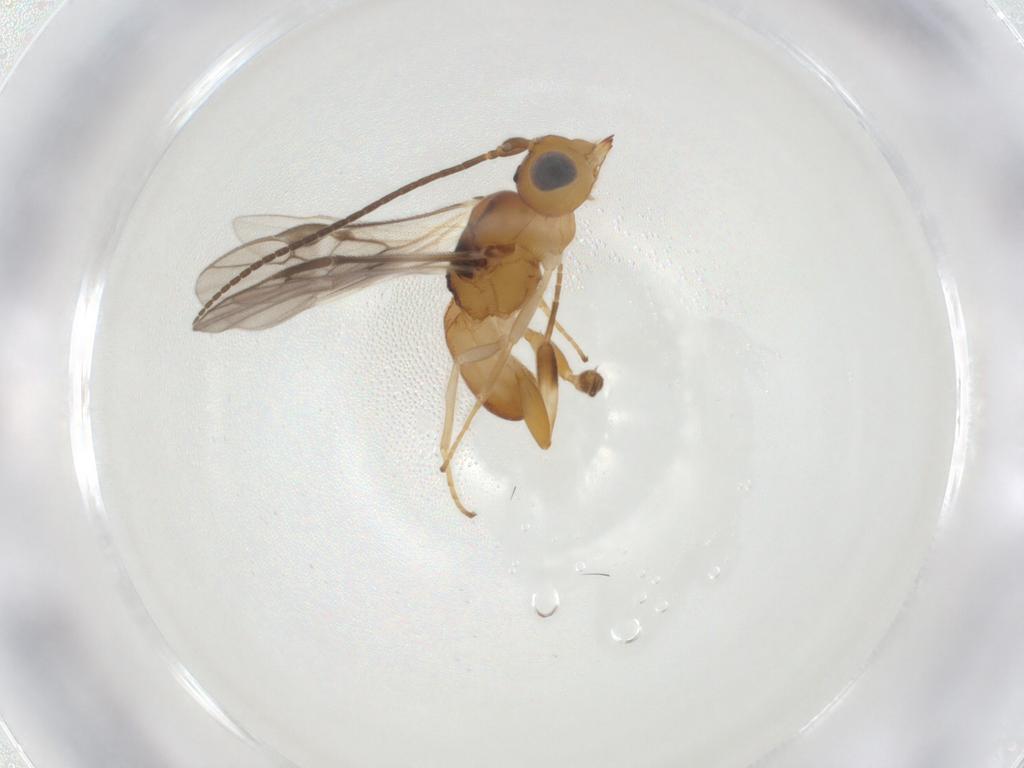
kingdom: Animalia
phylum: Arthropoda
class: Insecta
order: Hymenoptera
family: Braconidae
